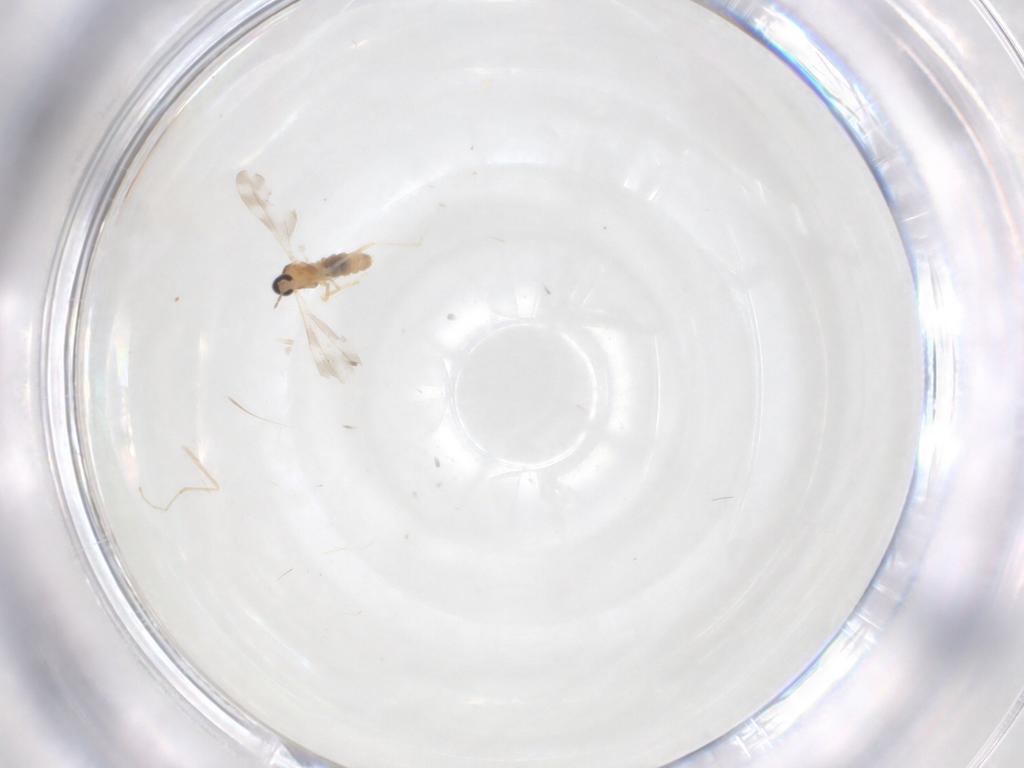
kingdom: Animalia
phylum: Arthropoda
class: Insecta
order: Diptera
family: Cecidomyiidae
